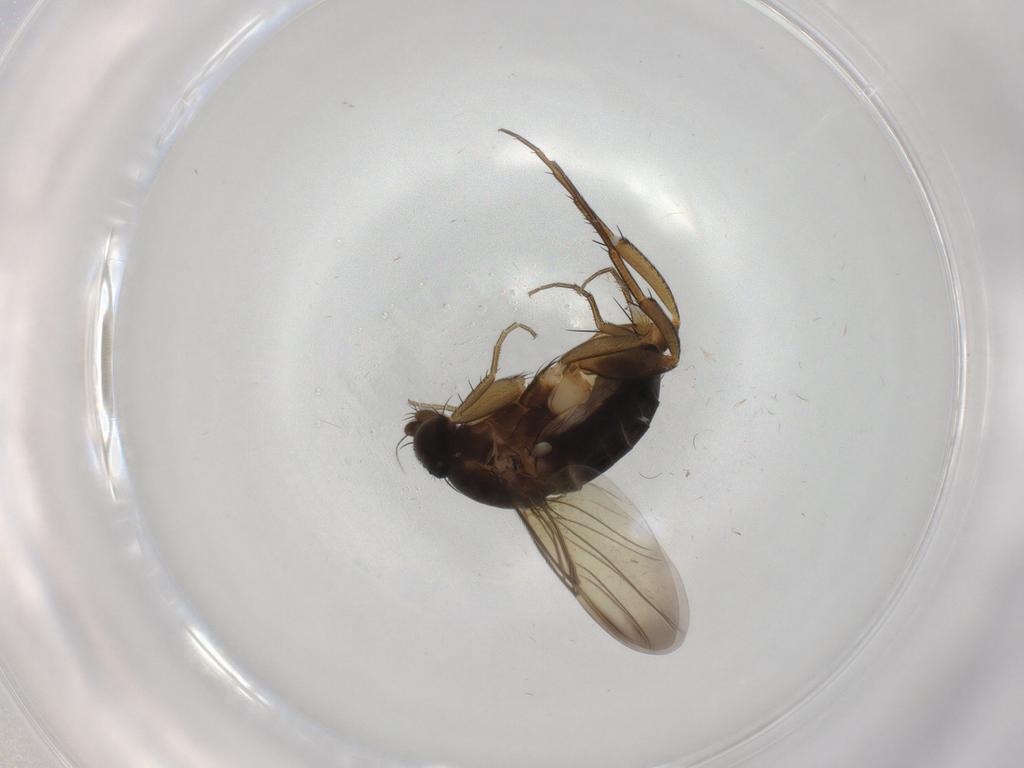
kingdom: Animalia
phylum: Arthropoda
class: Insecta
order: Diptera
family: Phoridae
